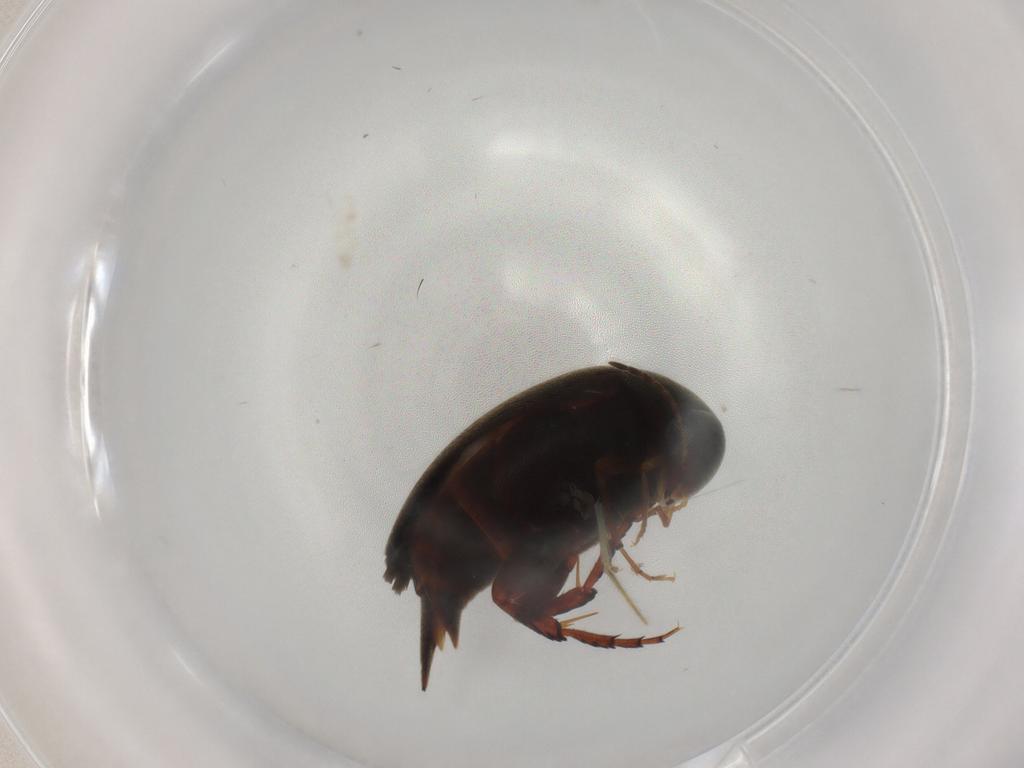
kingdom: Animalia
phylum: Arthropoda
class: Insecta
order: Coleoptera
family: Mordellidae
